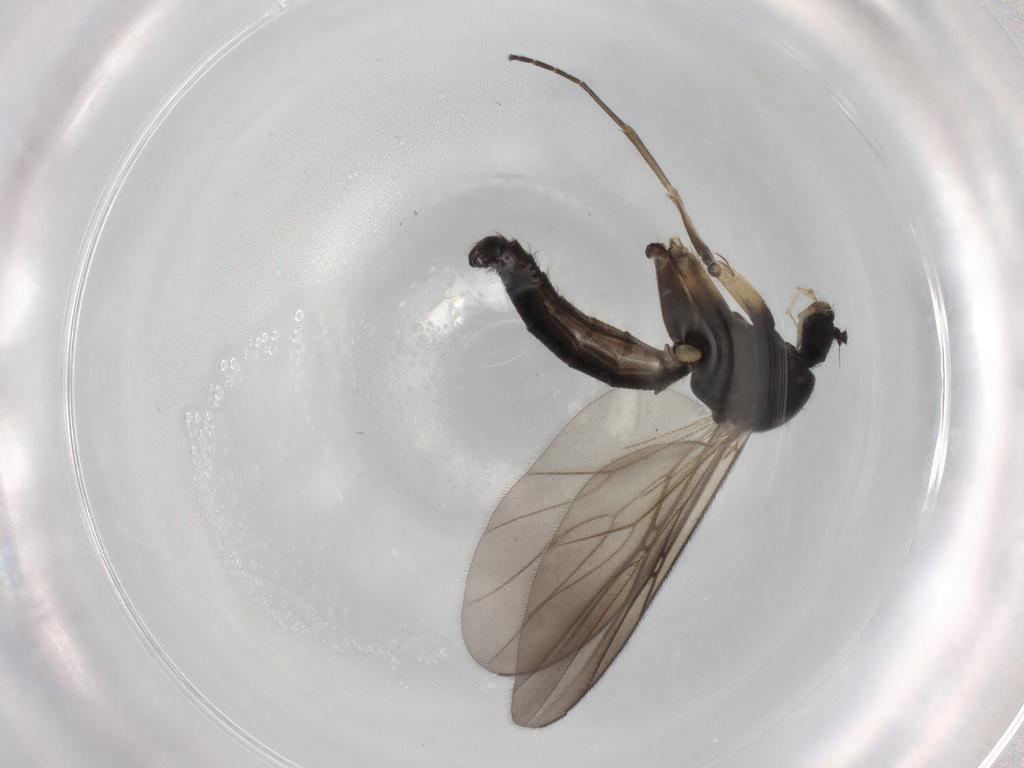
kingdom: Animalia
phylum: Arthropoda
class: Insecta
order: Diptera
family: Mycetophilidae
